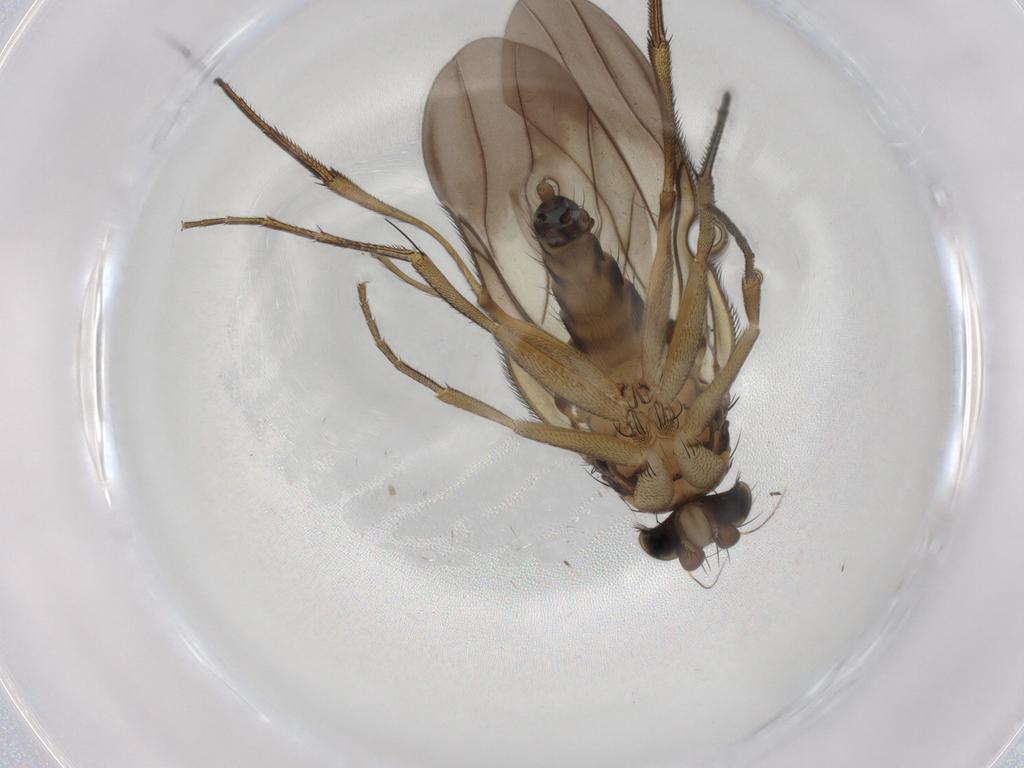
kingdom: Animalia
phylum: Arthropoda
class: Insecta
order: Diptera
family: Phoridae
